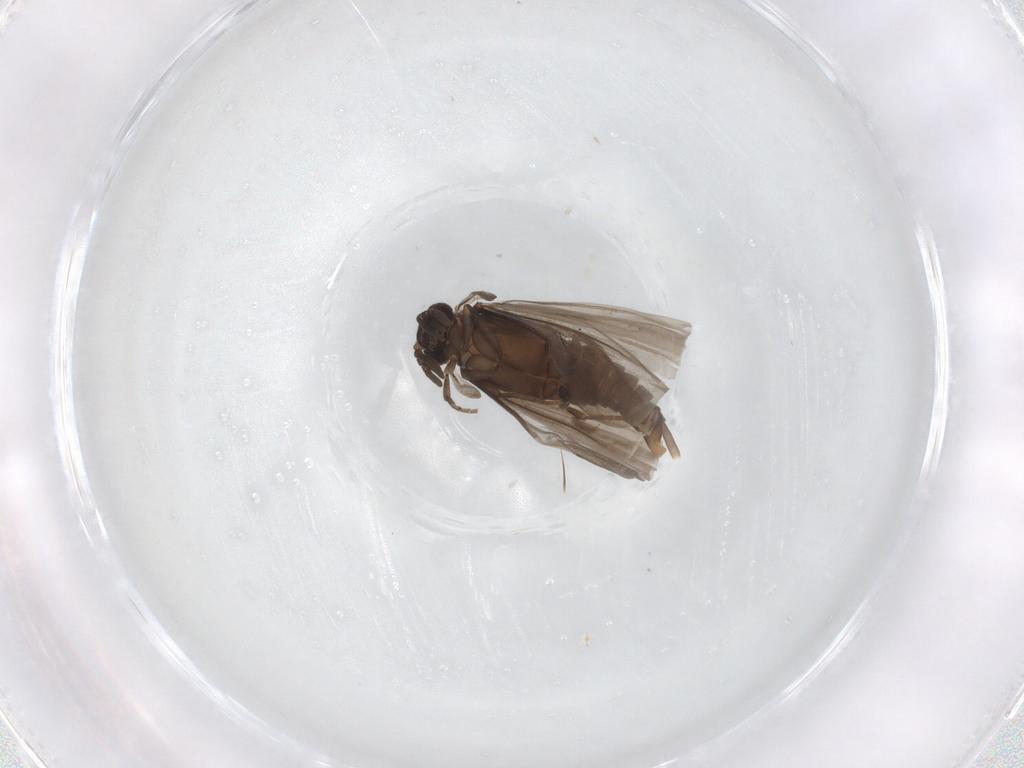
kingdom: Animalia
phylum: Arthropoda
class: Insecta
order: Strepsiptera
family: Mengenillidae
